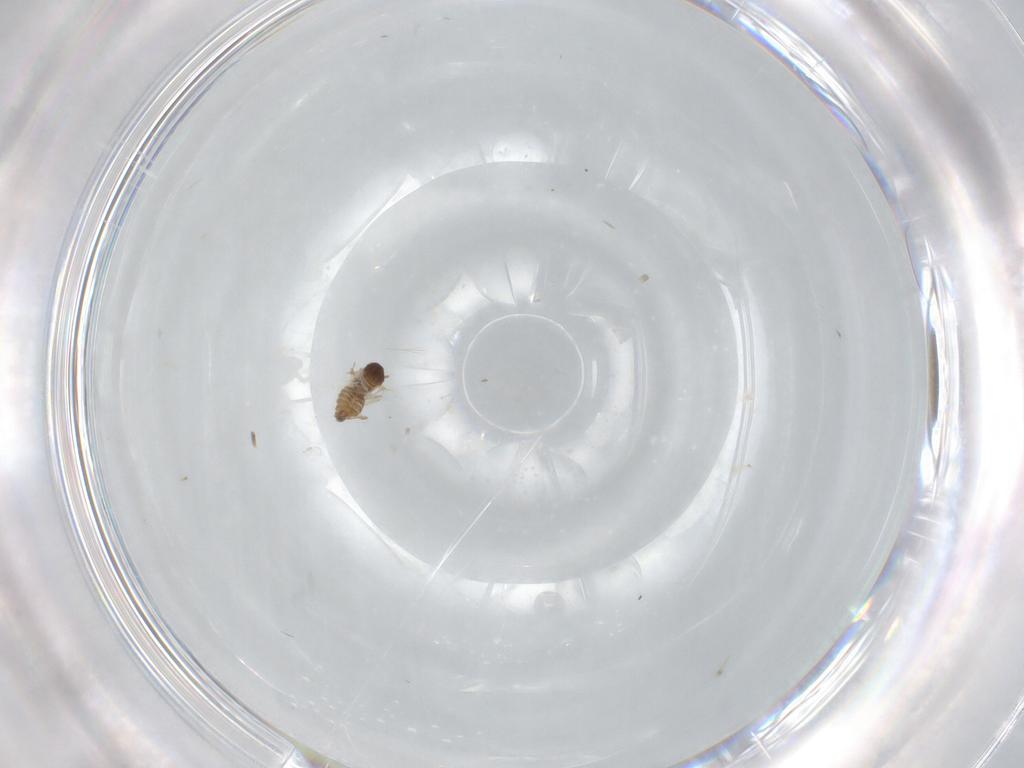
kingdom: Animalia
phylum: Arthropoda
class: Insecta
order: Diptera
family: Cecidomyiidae
